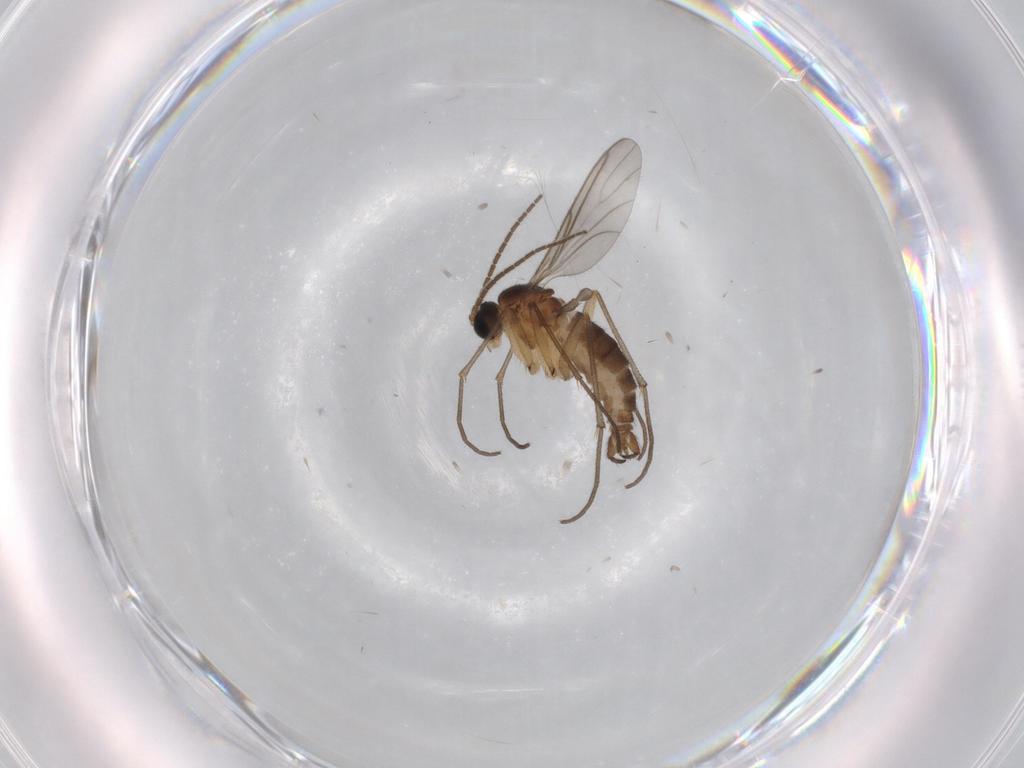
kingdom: Animalia
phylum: Arthropoda
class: Insecta
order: Diptera
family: Sciaridae
